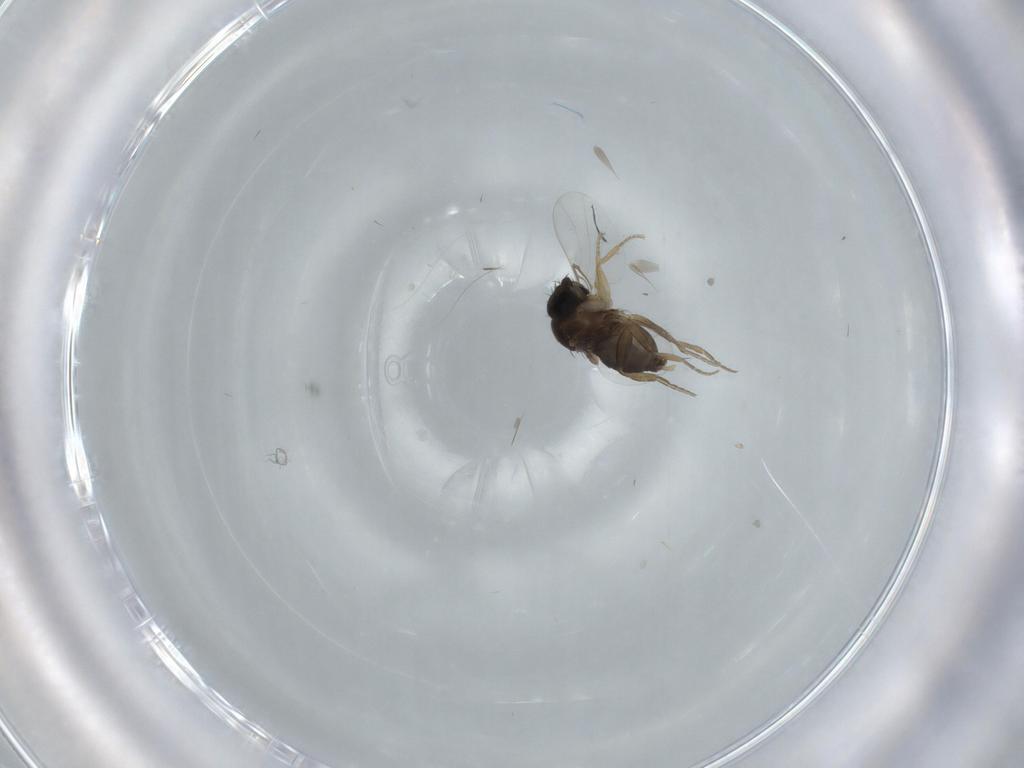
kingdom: Animalia
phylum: Arthropoda
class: Insecta
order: Diptera
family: Phoridae
